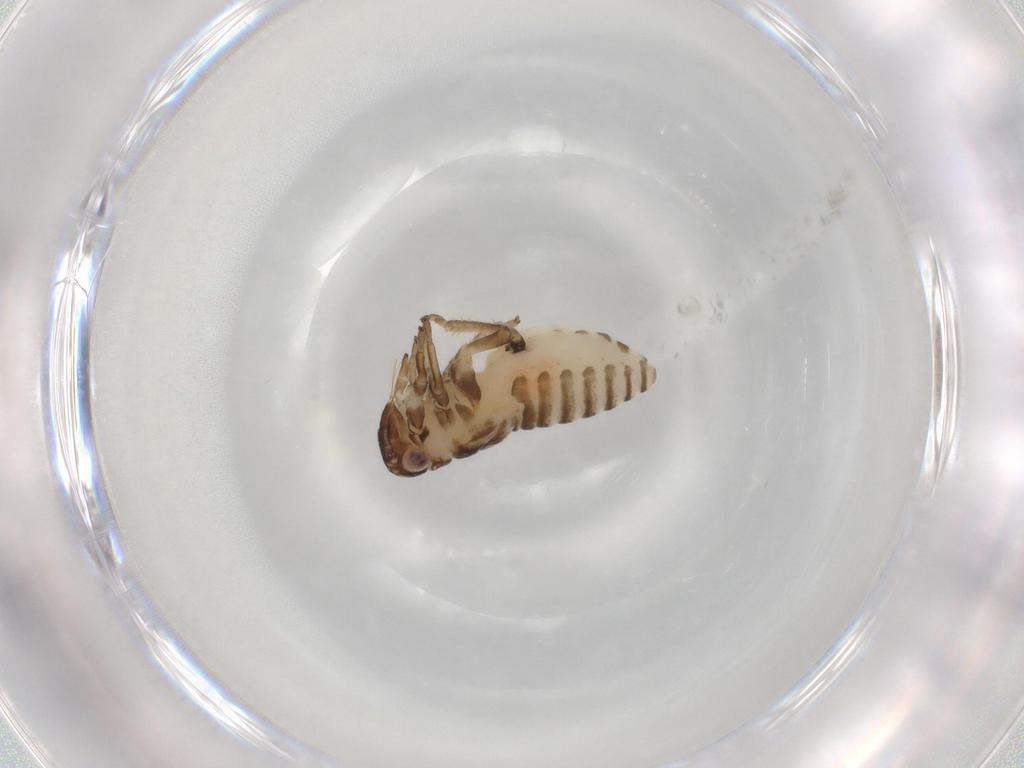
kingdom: Animalia
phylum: Arthropoda
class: Insecta
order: Hemiptera
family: Cicadellidae
